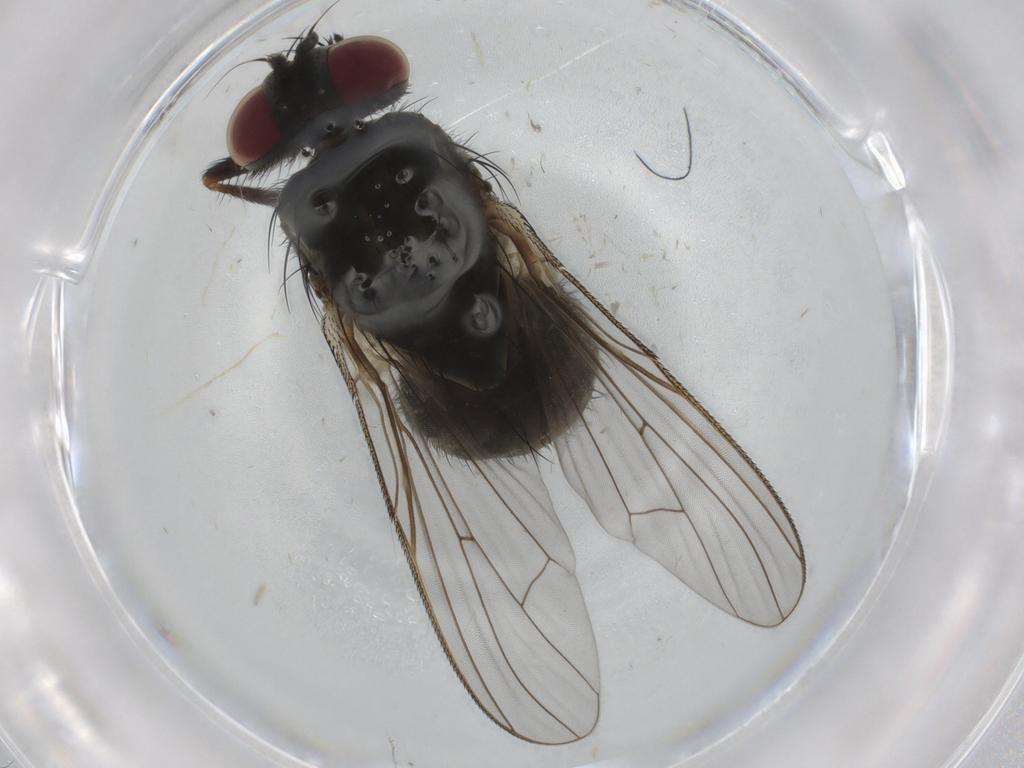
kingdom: Animalia
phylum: Arthropoda
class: Insecta
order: Diptera
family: Cecidomyiidae
